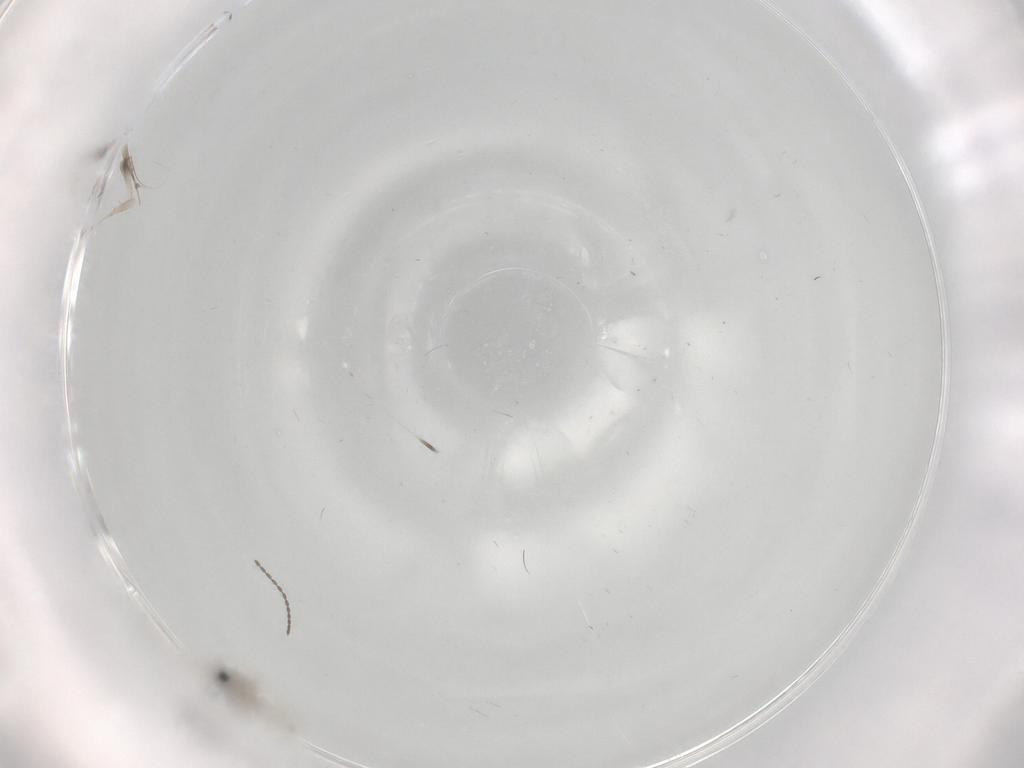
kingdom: Animalia
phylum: Arthropoda
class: Insecta
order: Diptera
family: Cecidomyiidae
